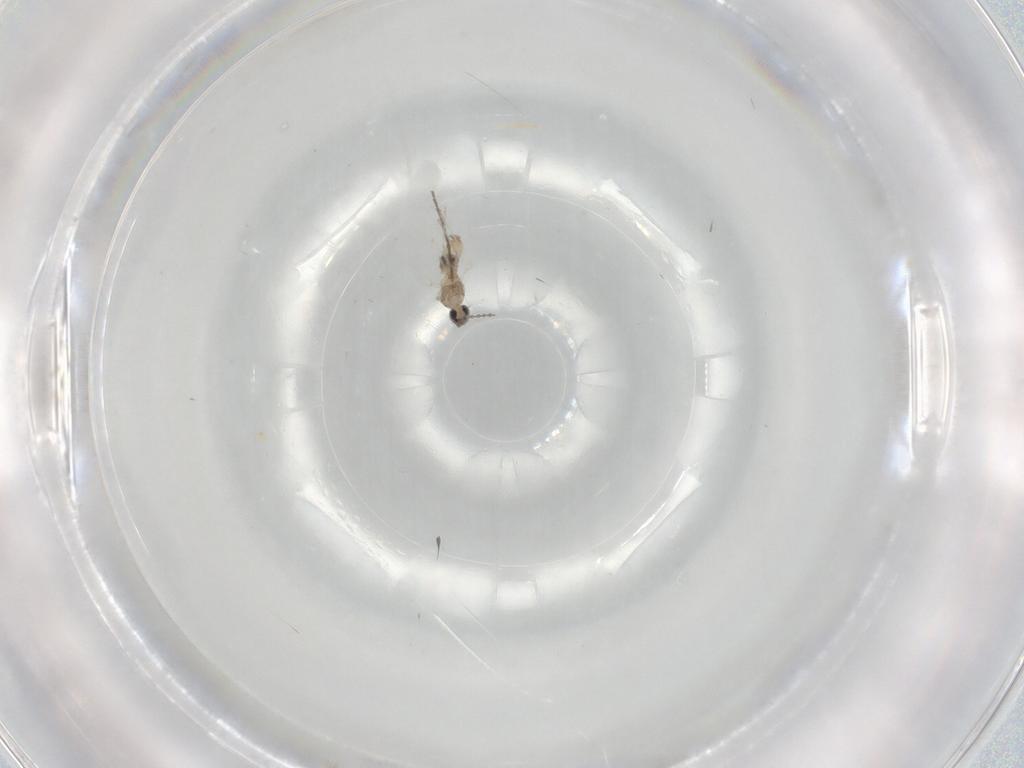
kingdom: Animalia
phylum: Arthropoda
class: Insecta
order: Diptera
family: Cecidomyiidae
